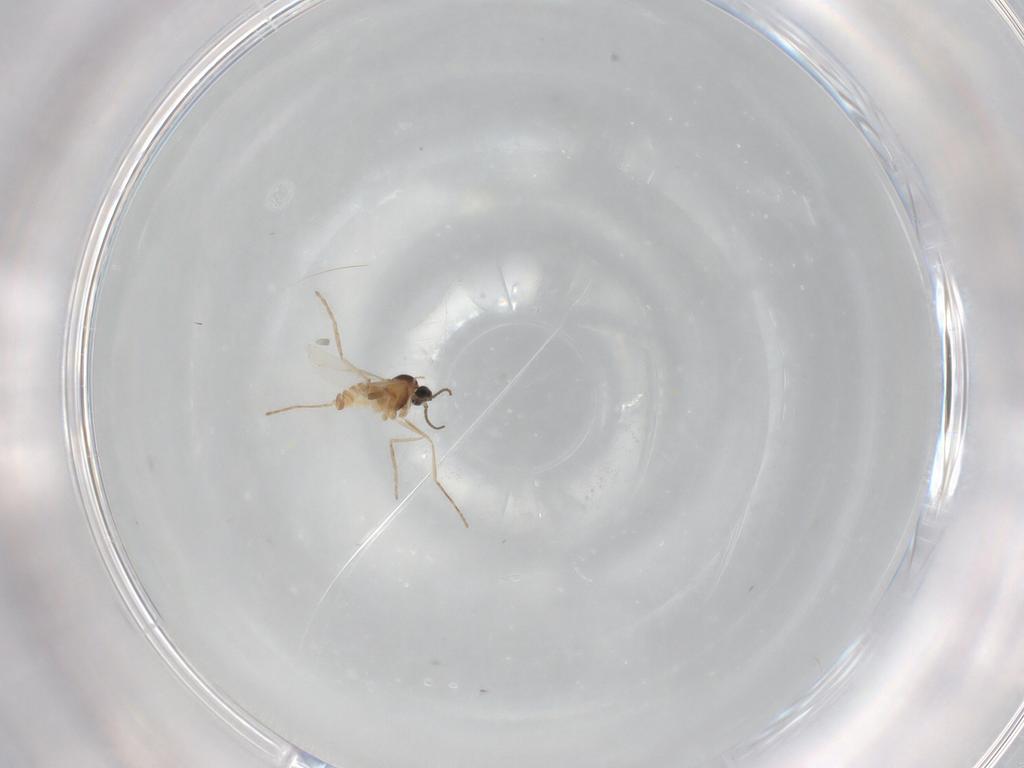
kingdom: Animalia
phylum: Arthropoda
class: Insecta
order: Diptera
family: Cecidomyiidae
